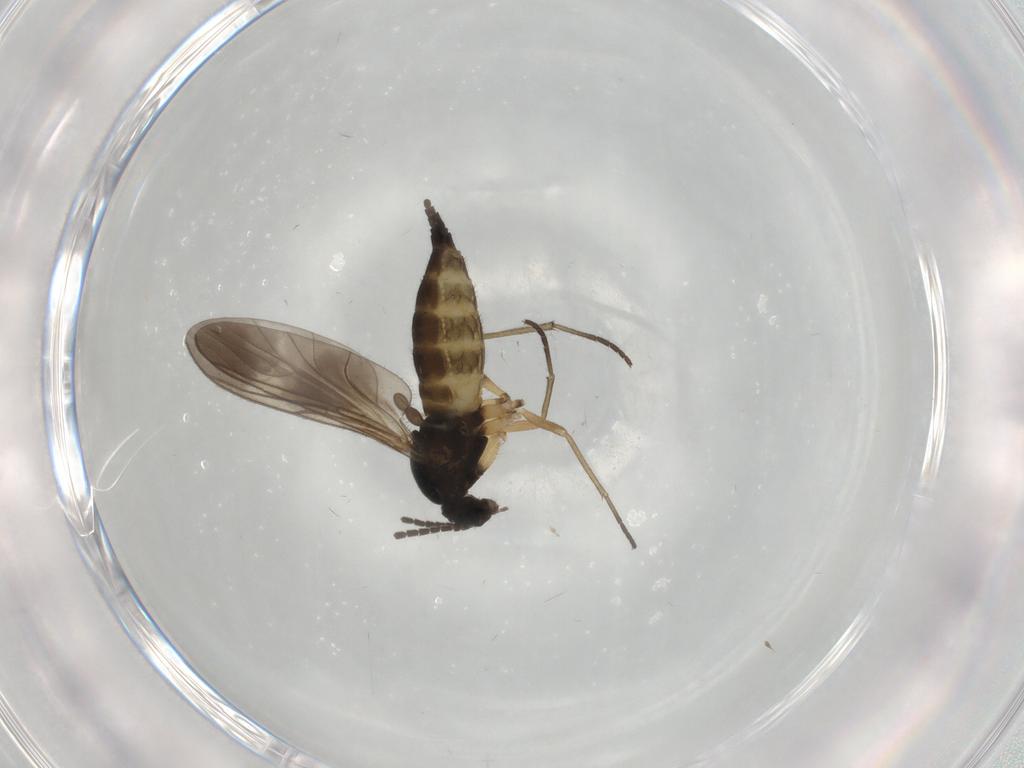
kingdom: Animalia
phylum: Arthropoda
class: Insecta
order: Diptera
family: Sciaridae
